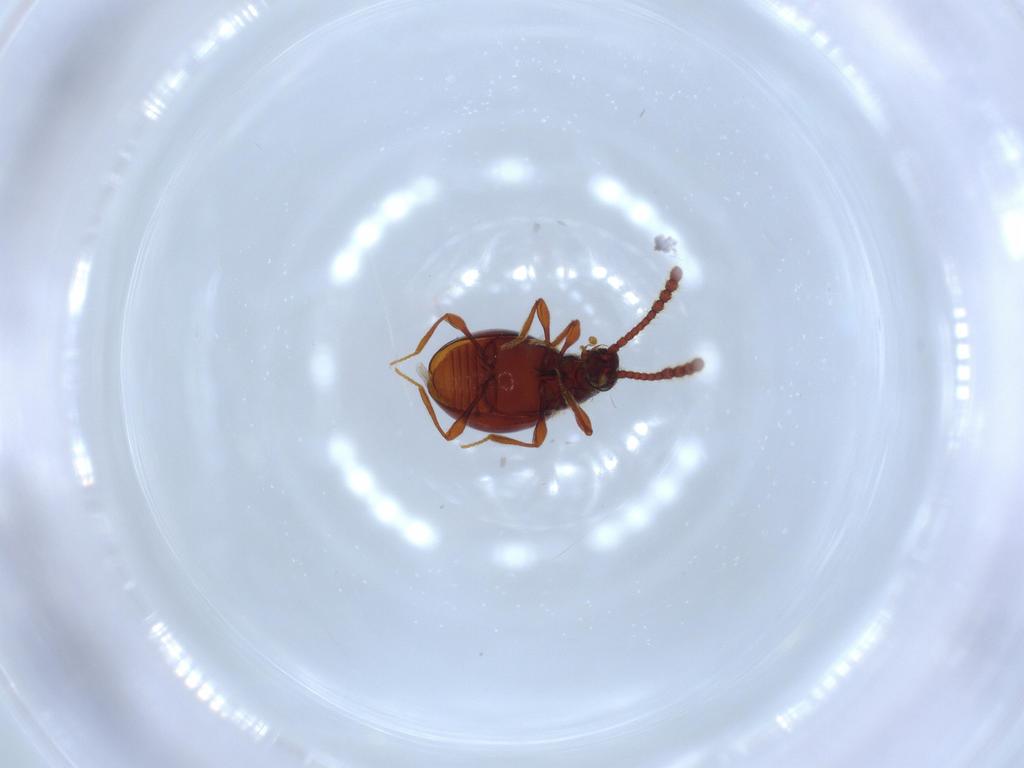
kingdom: Animalia
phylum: Arthropoda
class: Insecta
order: Coleoptera
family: Staphylinidae
